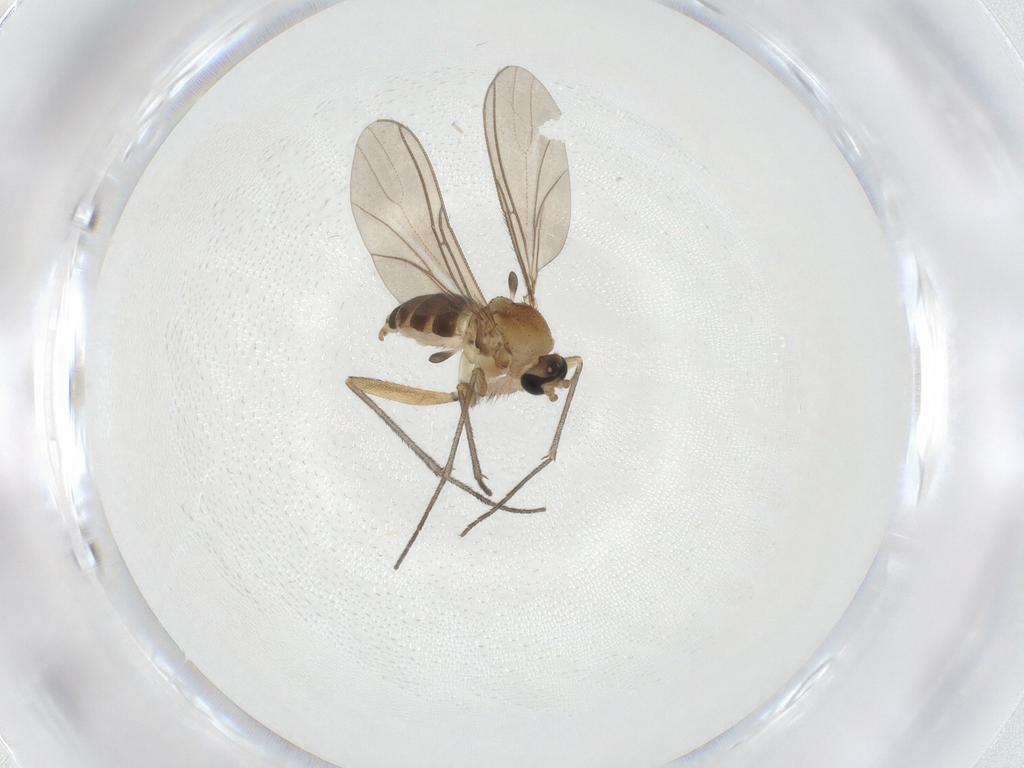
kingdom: Animalia
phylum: Arthropoda
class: Insecta
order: Diptera
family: Sciaridae
